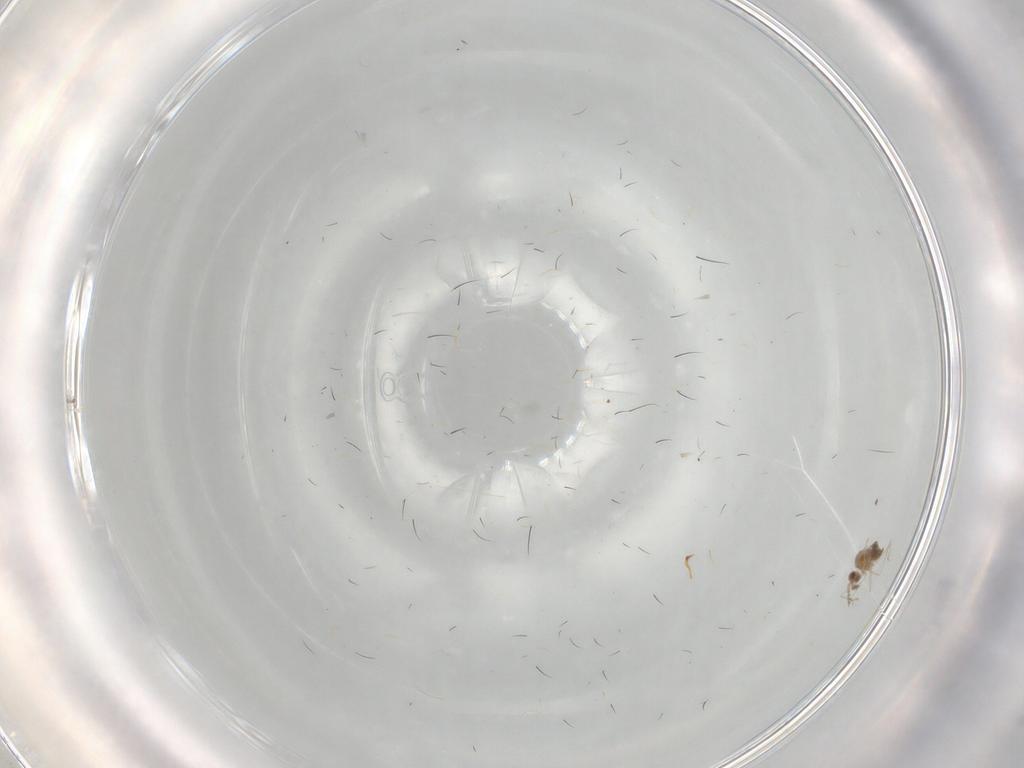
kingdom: Animalia
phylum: Arthropoda
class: Insecta
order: Diptera
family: Cecidomyiidae
